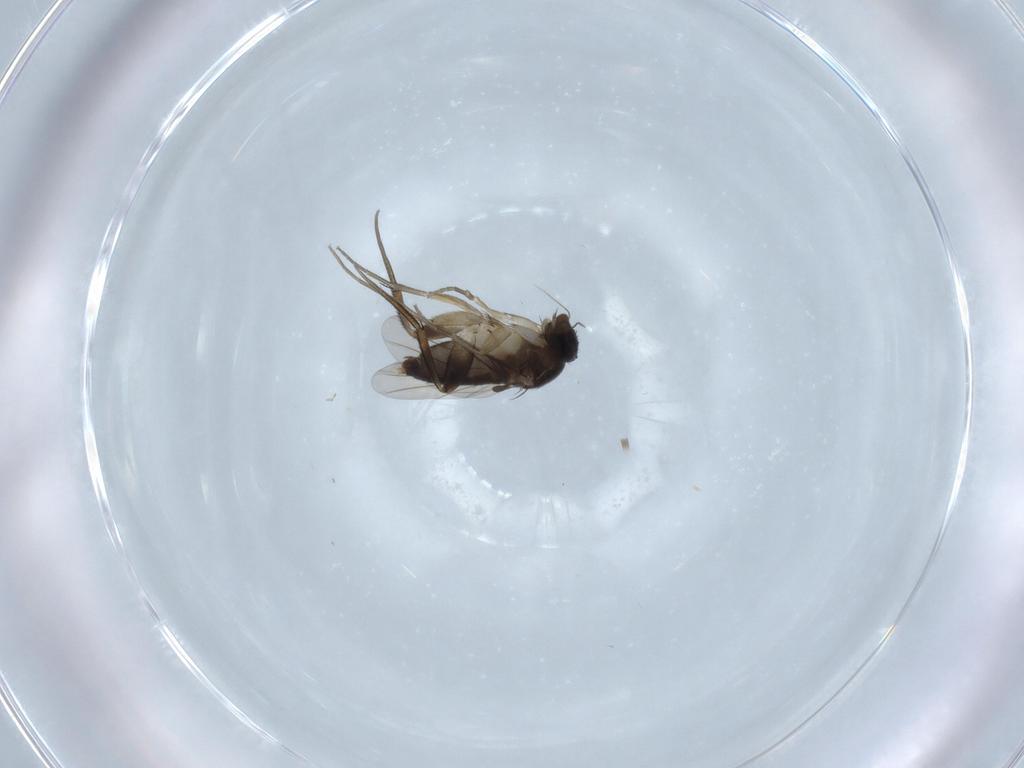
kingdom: Animalia
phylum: Arthropoda
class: Insecta
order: Diptera
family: Phoridae
